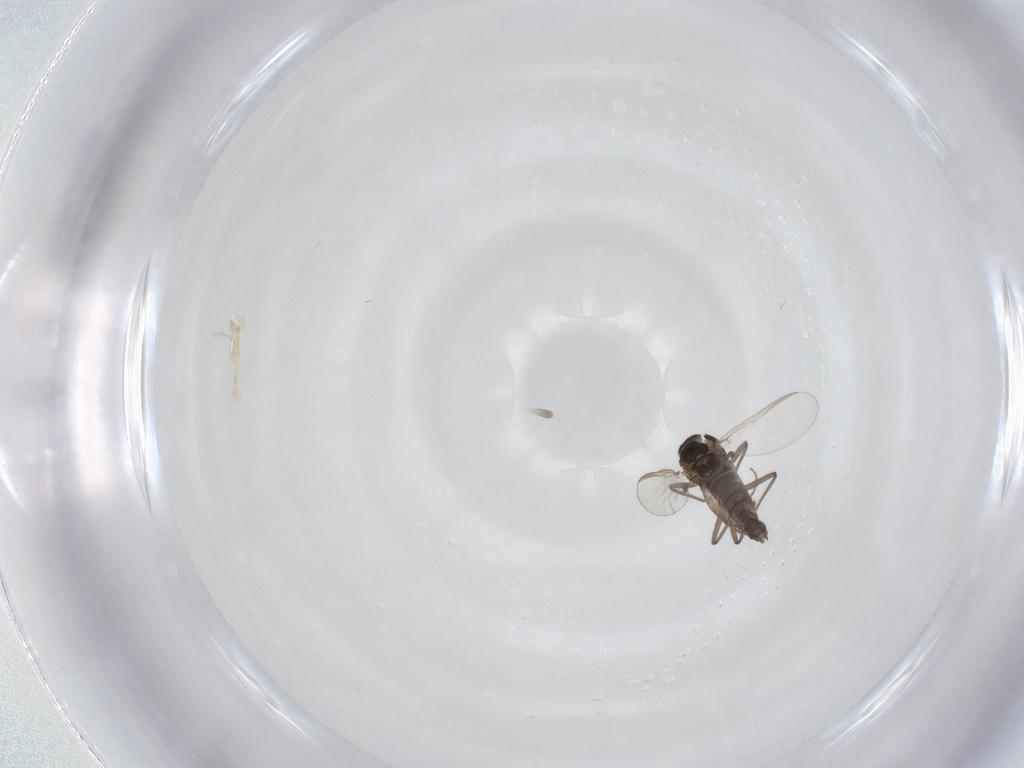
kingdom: Animalia
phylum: Arthropoda
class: Insecta
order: Diptera
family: Chironomidae
